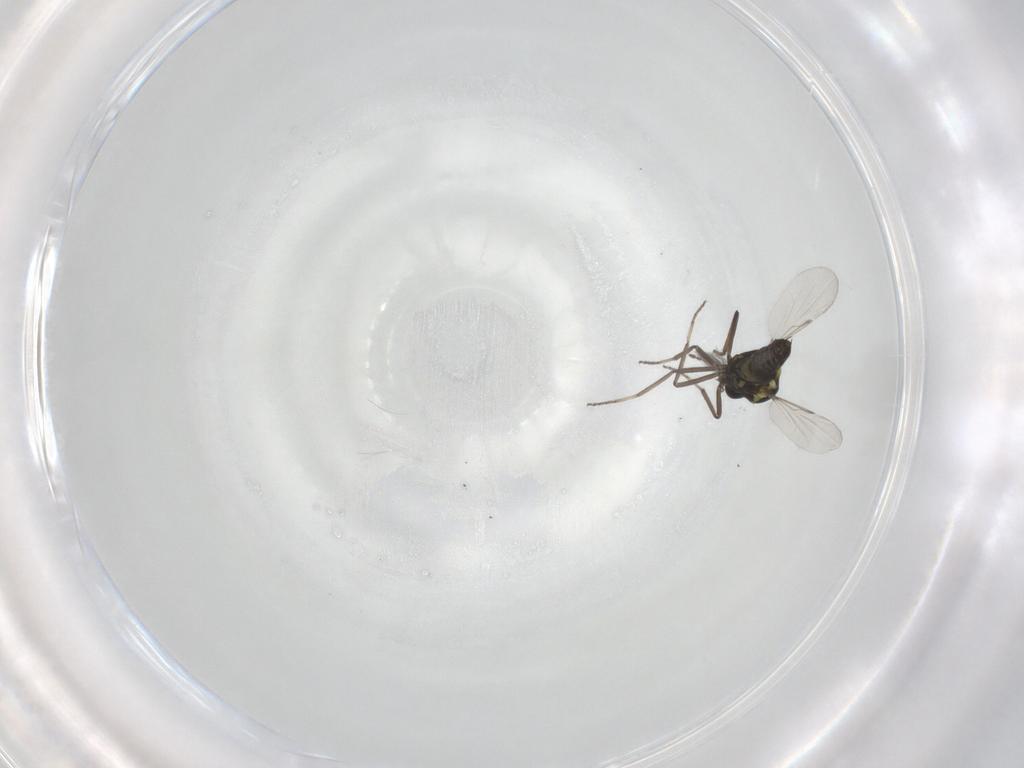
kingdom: Animalia
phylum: Arthropoda
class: Insecta
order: Diptera
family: Ceratopogonidae
